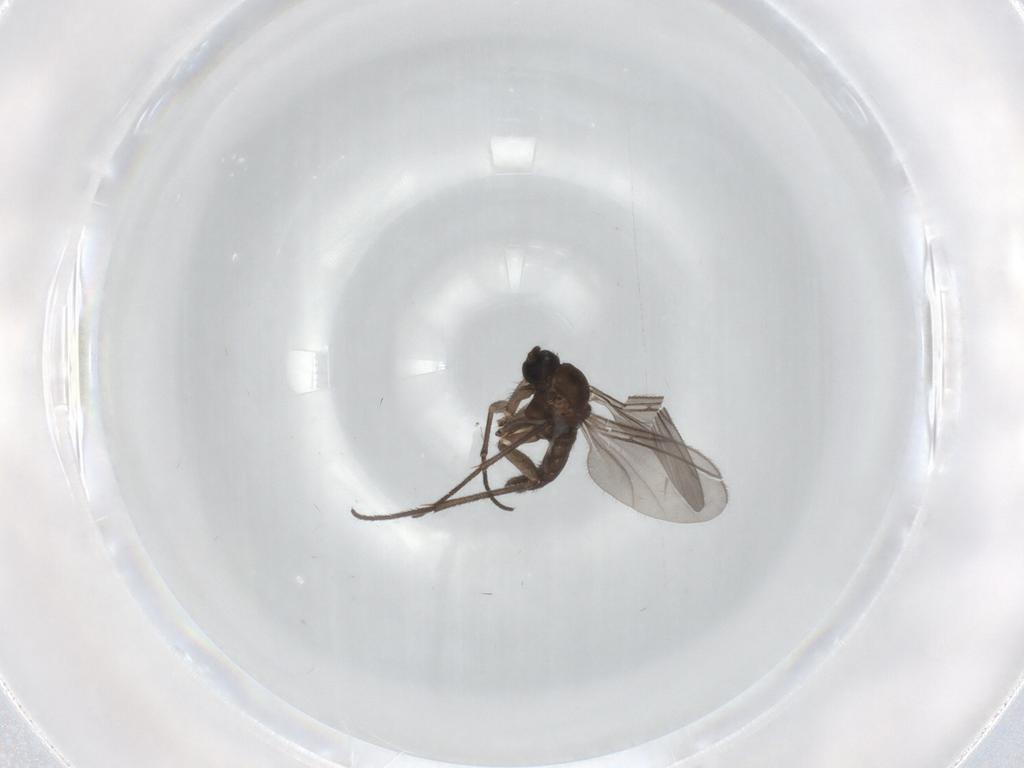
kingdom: Animalia
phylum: Arthropoda
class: Insecta
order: Diptera
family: Sciaridae
